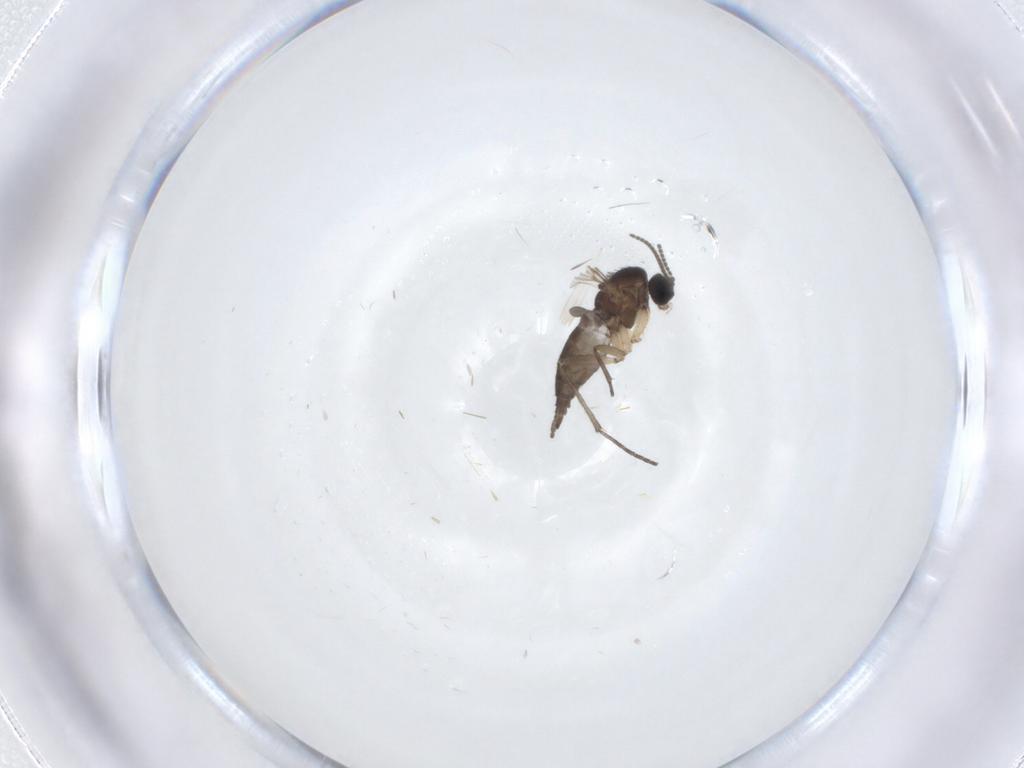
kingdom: Animalia
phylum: Arthropoda
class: Insecta
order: Diptera
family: Sciaridae
